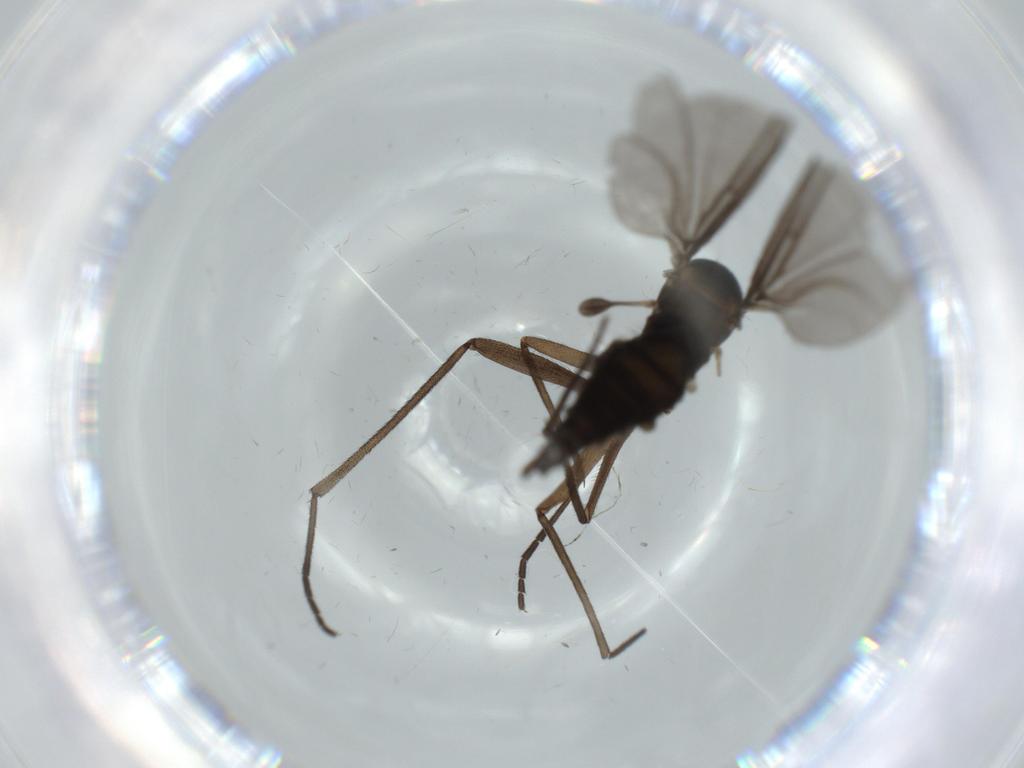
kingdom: Animalia
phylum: Arthropoda
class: Insecta
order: Diptera
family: Sciaridae
